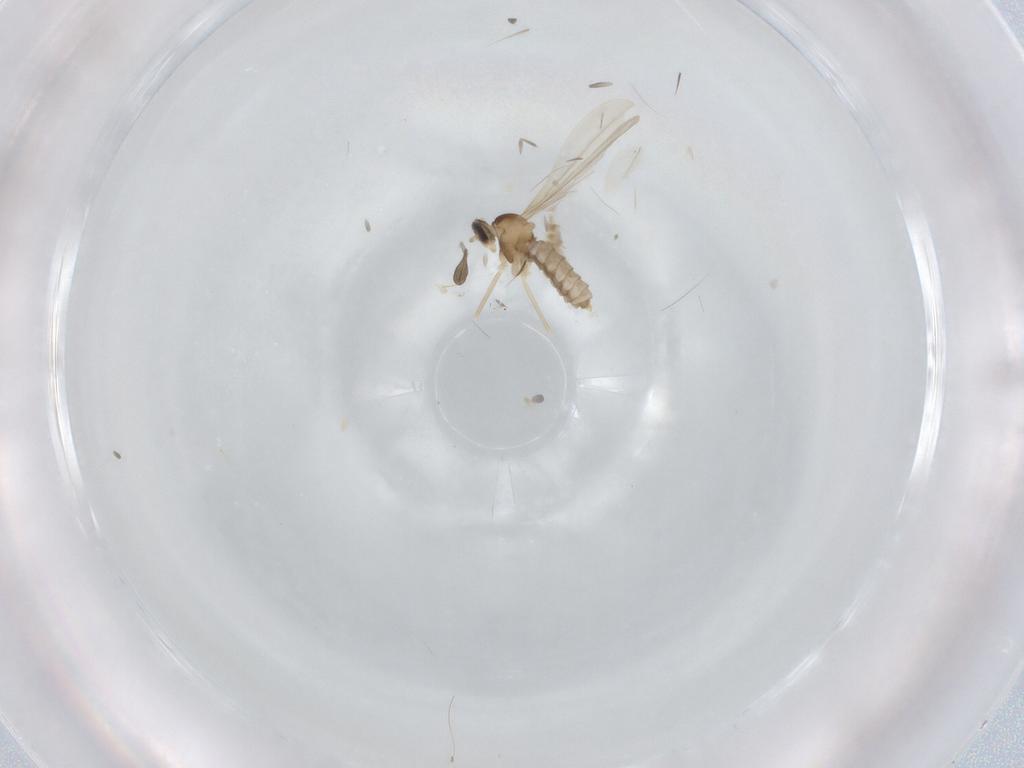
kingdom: Animalia
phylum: Arthropoda
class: Insecta
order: Diptera
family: Cecidomyiidae
